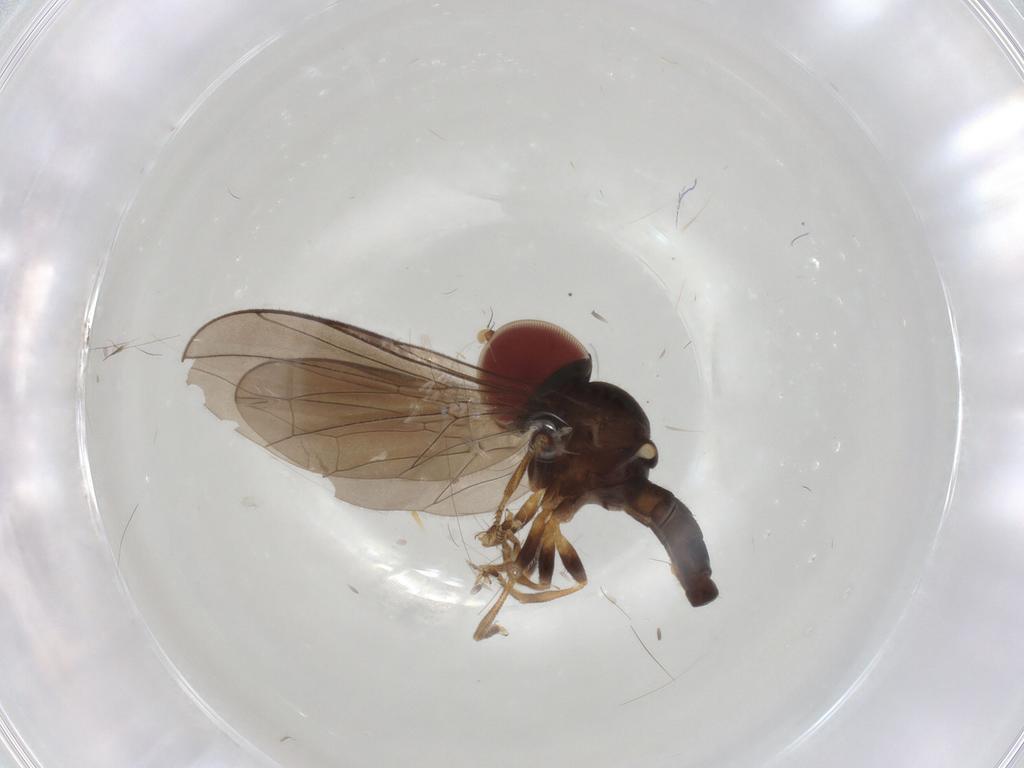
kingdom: Animalia
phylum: Arthropoda
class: Insecta
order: Diptera
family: Pipunculidae
